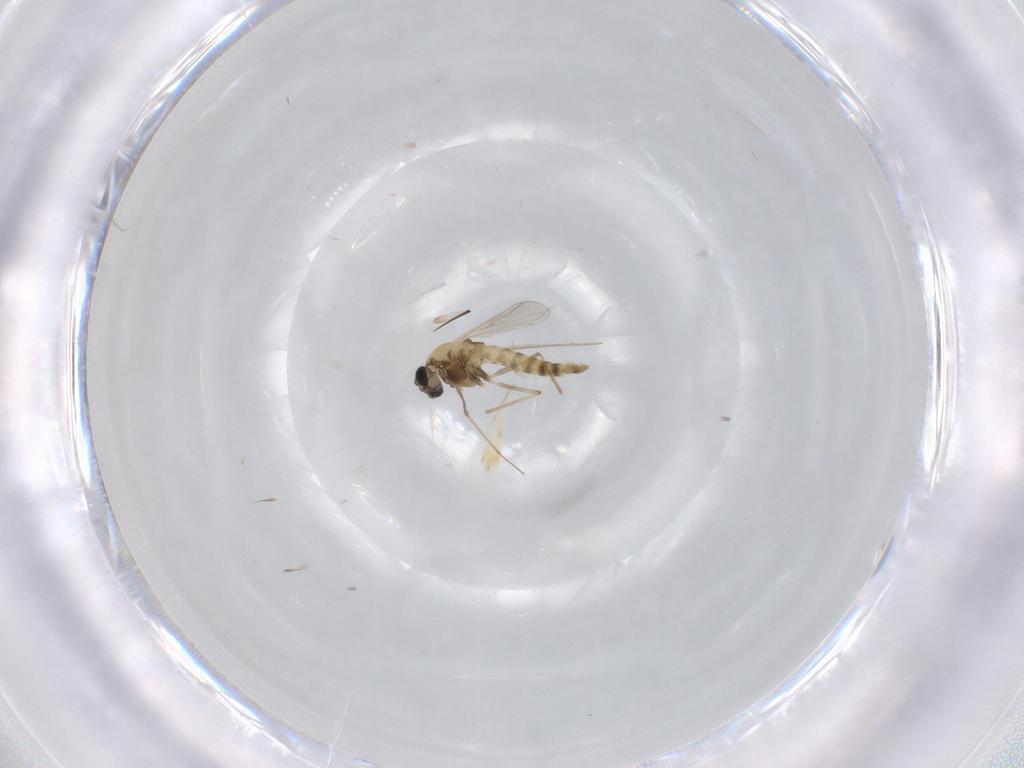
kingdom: Animalia
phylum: Arthropoda
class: Insecta
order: Diptera
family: Chironomidae
